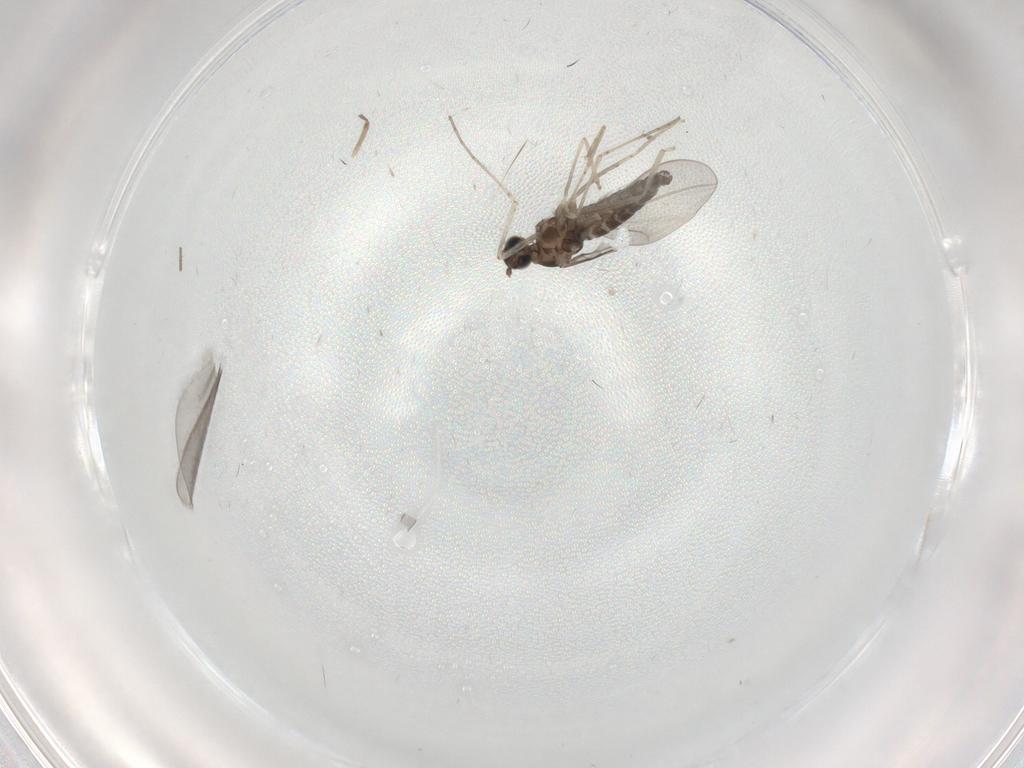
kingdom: Animalia
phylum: Arthropoda
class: Insecta
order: Diptera
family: Cecidomyiidae
